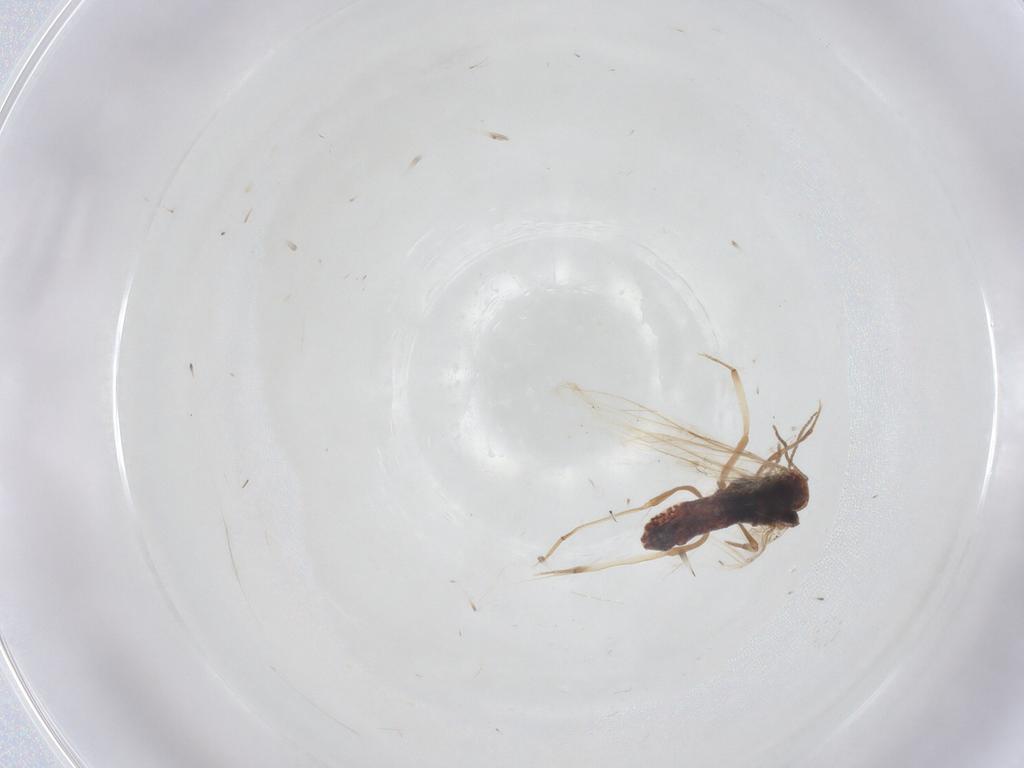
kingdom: Animalia
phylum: Arthropoda
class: Insecta
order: Neuroptera
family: Coniopterygidae
